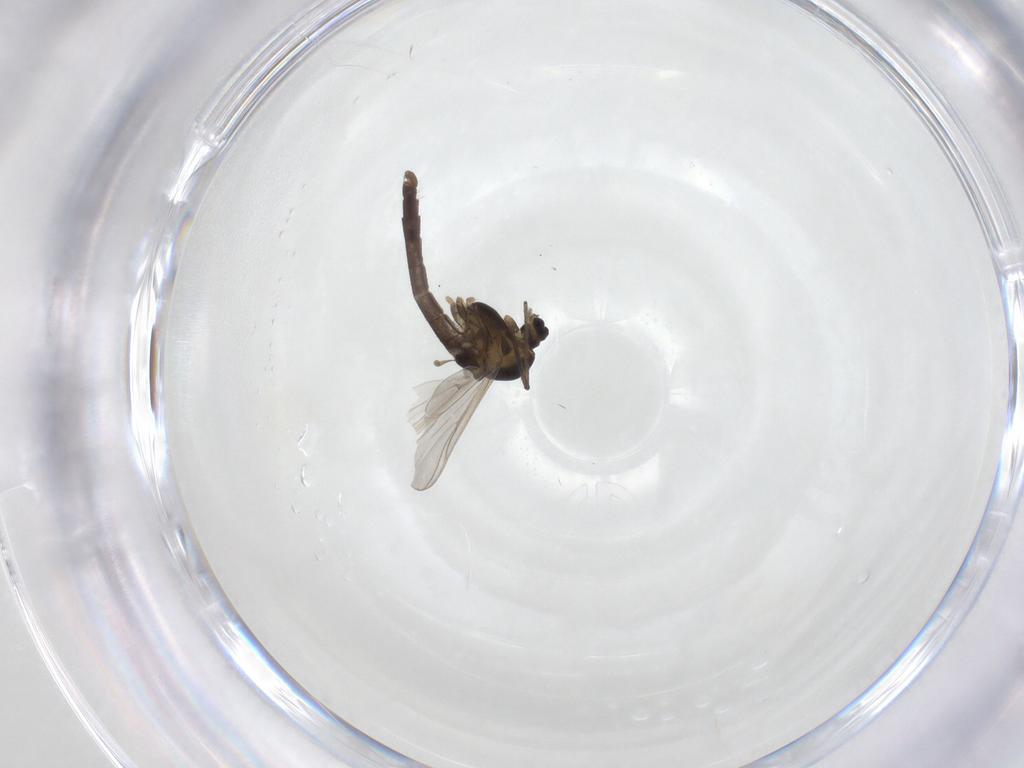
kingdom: Animalia
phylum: Arthropoda
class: Insecta
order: Diptera
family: Chironomidae
